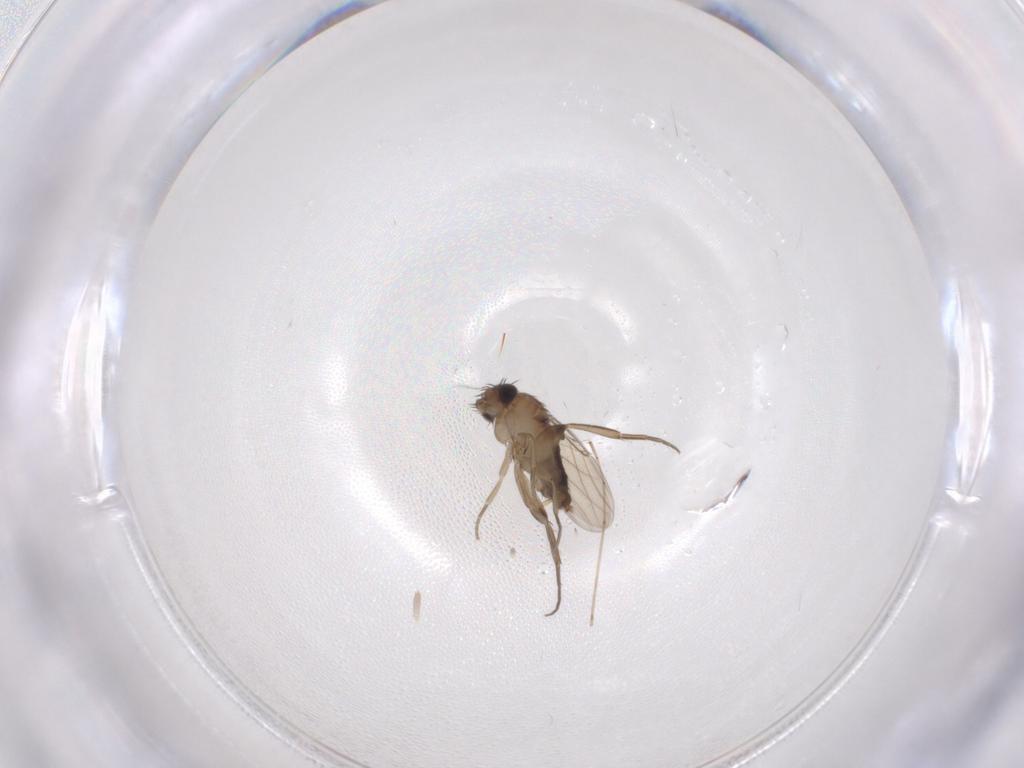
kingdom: Animalia
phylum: Arthropoda
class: Insecta
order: Diptera
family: Phoridae
